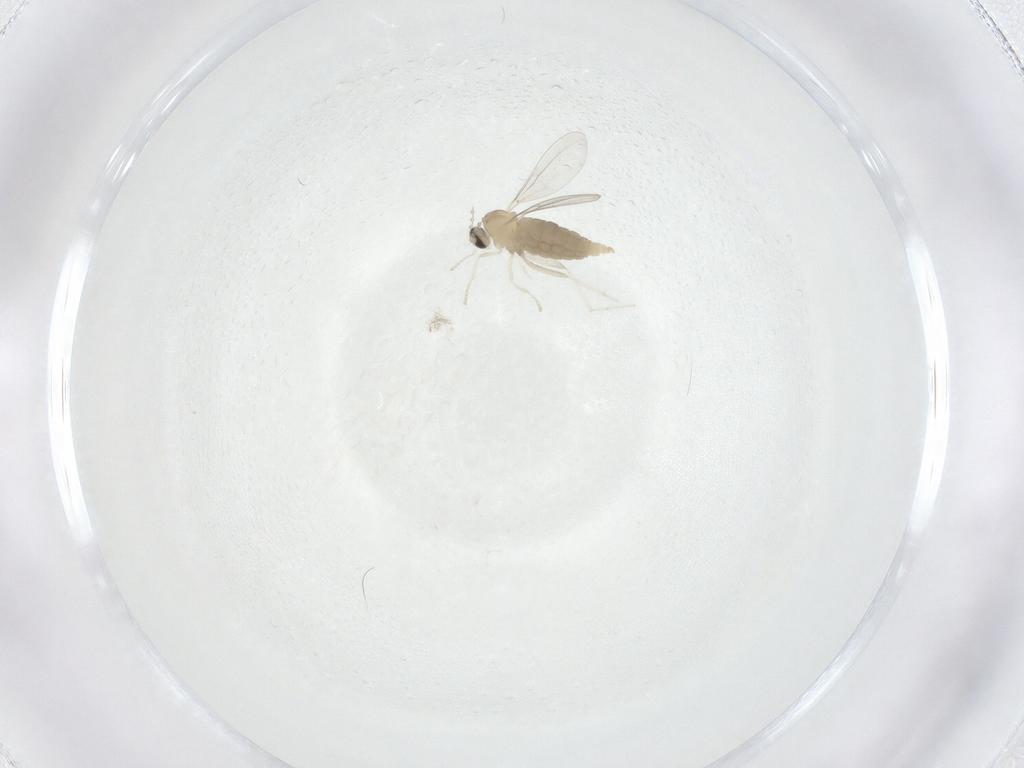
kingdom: Animalia
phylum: Arthropoda
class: Insecta
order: Diptera
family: Cecidomyiidae
